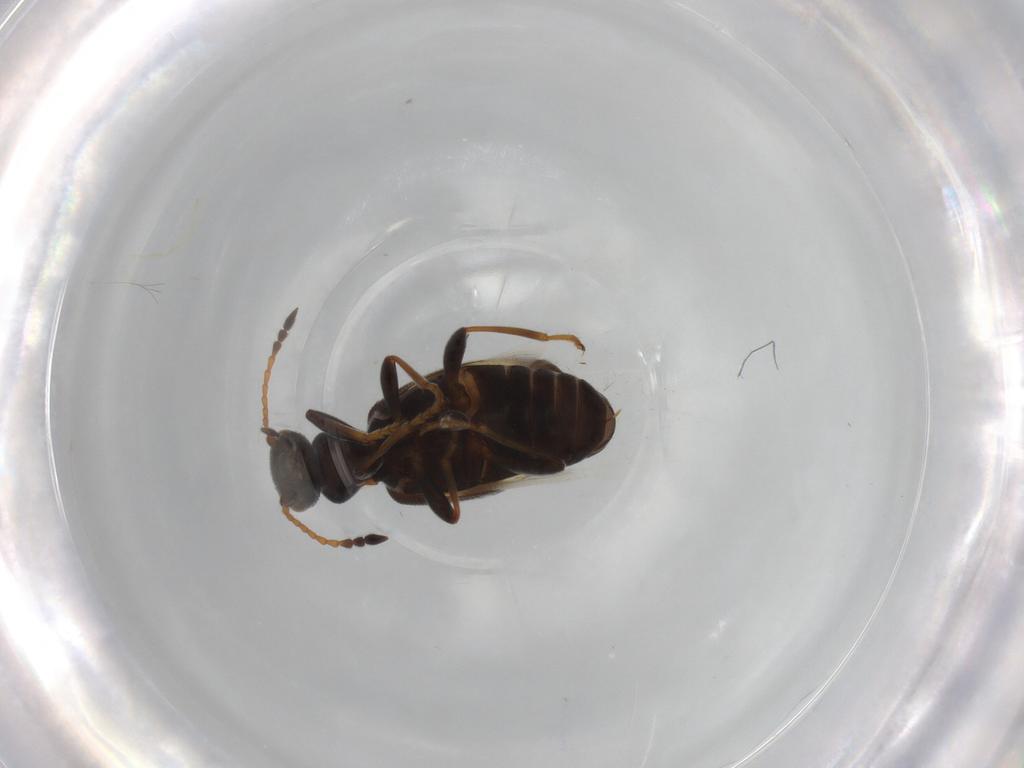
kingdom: Animalia
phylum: Arthropoda
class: Insecta
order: Coleoptera
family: Anthicidae
